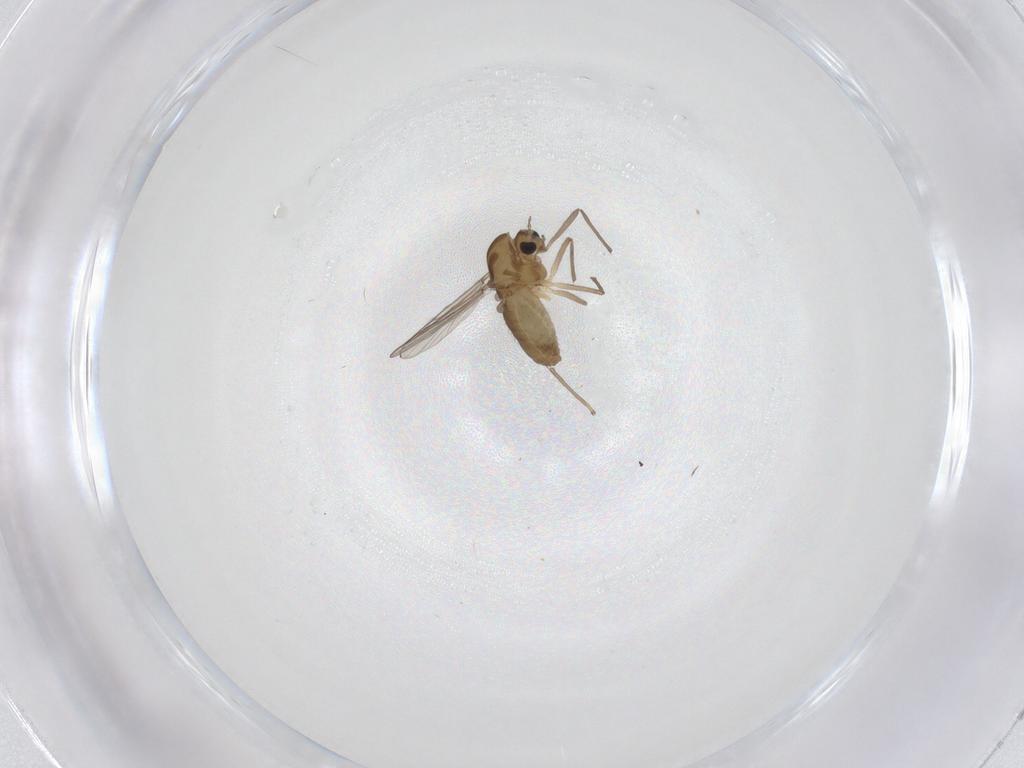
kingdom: Animalia
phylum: Arthropoda
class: Insecta
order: Diptera
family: Chironomidae
